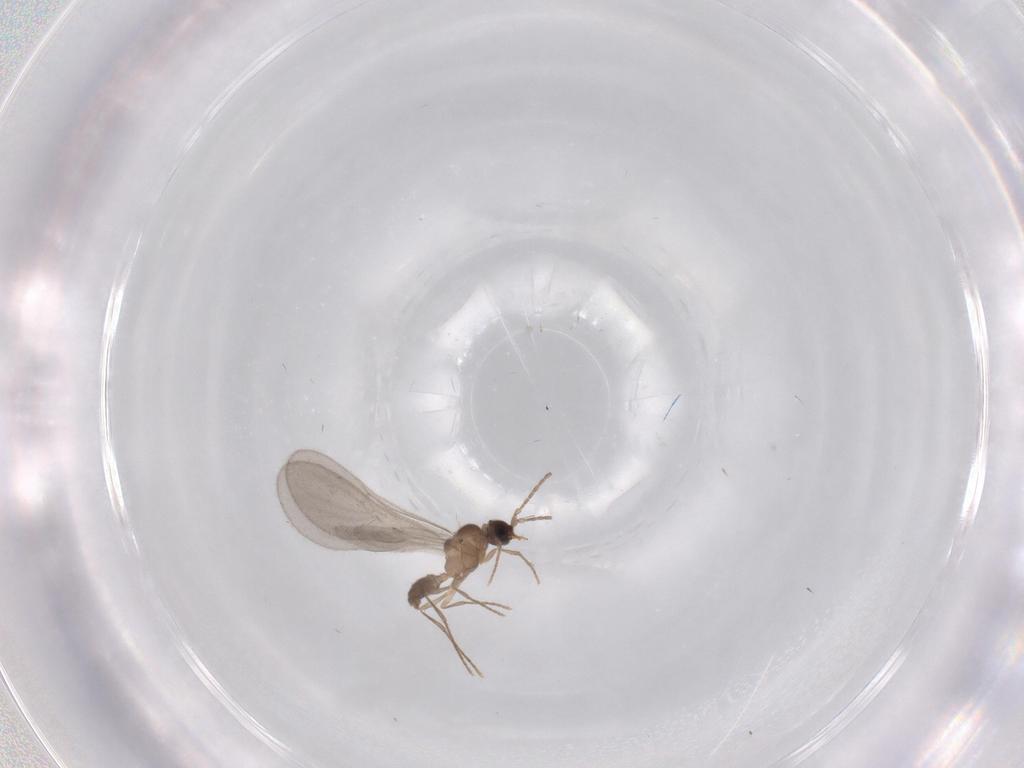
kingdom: Animalia
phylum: Arthropoda
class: Insecta
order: Hymenoptera
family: Formicidae
